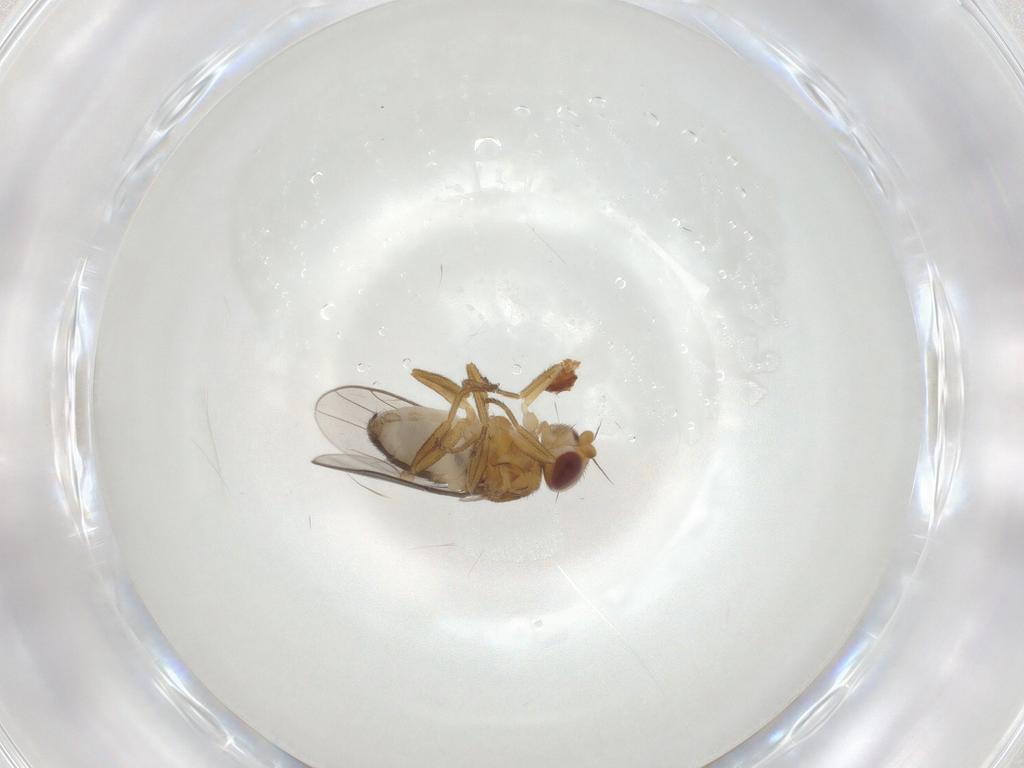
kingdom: Animalia
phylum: Arthropoda
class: Insecta
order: Diptera
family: Chloropidae
